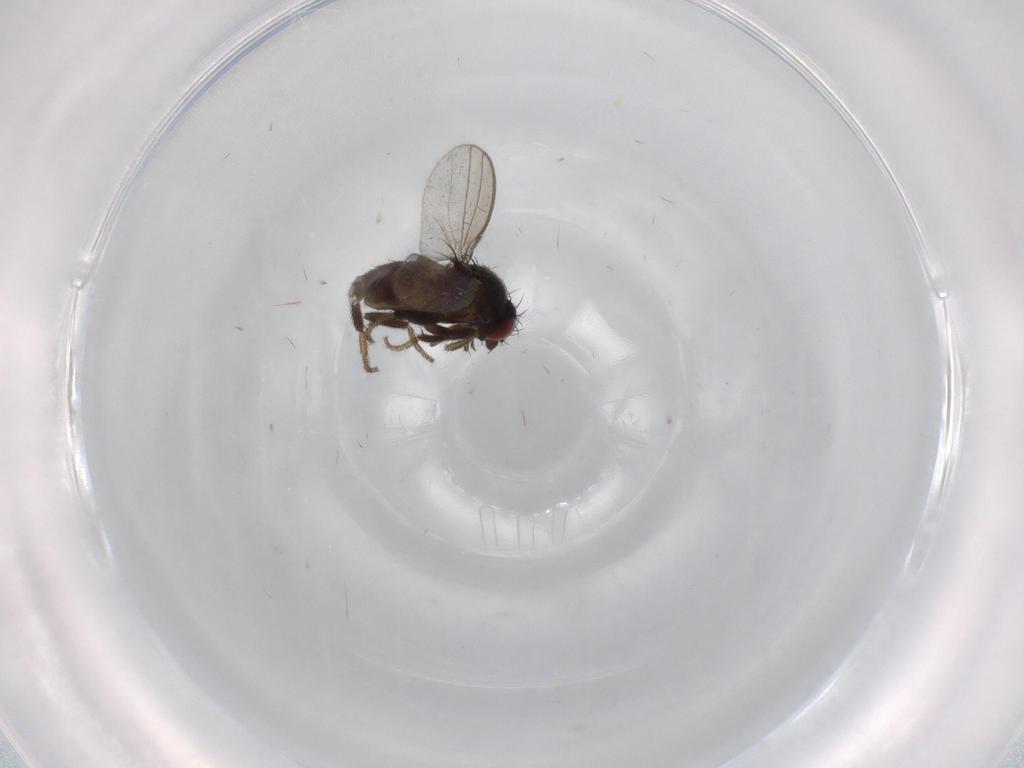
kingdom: Animalia
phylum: Arthropoda
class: Insecta
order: Diptera
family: Milichiidae
